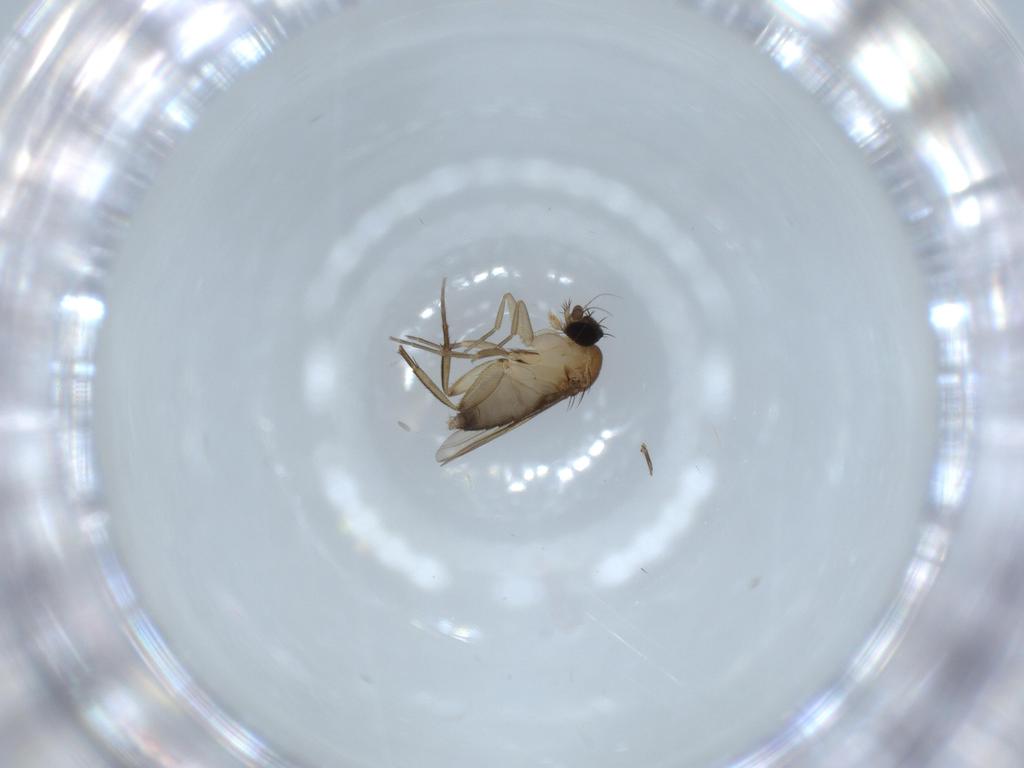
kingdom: Animalia
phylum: Arthropoda
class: Insecta
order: Diptera
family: Phoridae
